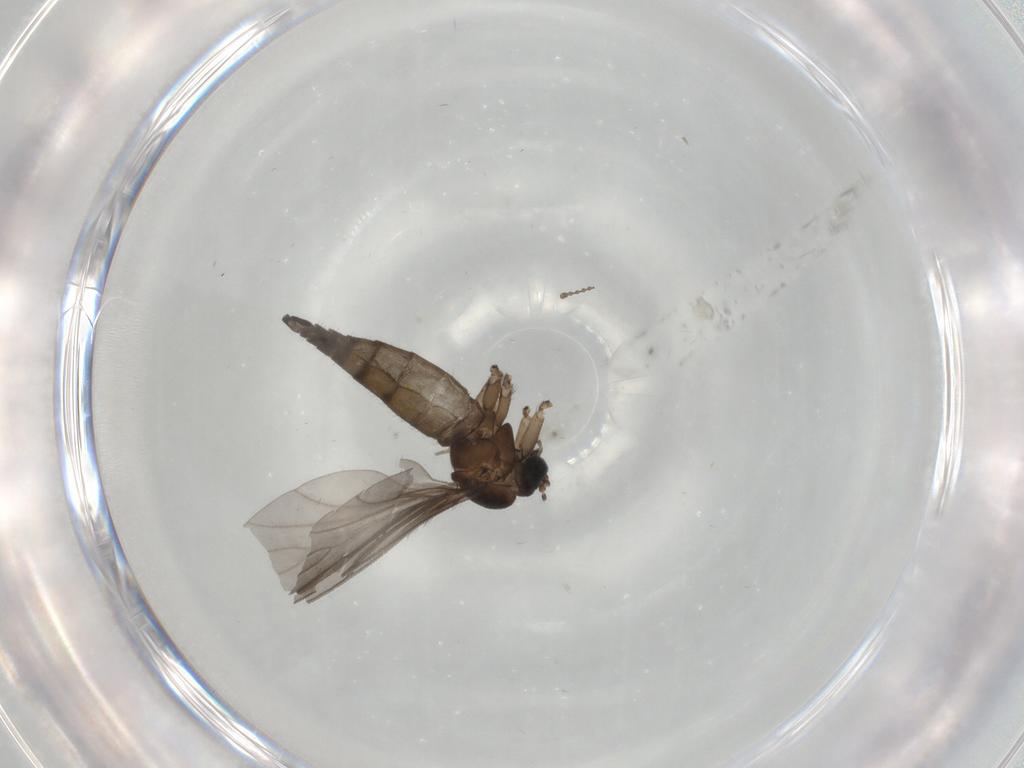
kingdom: Animalia
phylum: Arthropoda
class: Insecta
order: Diptera
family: Sciaridae
